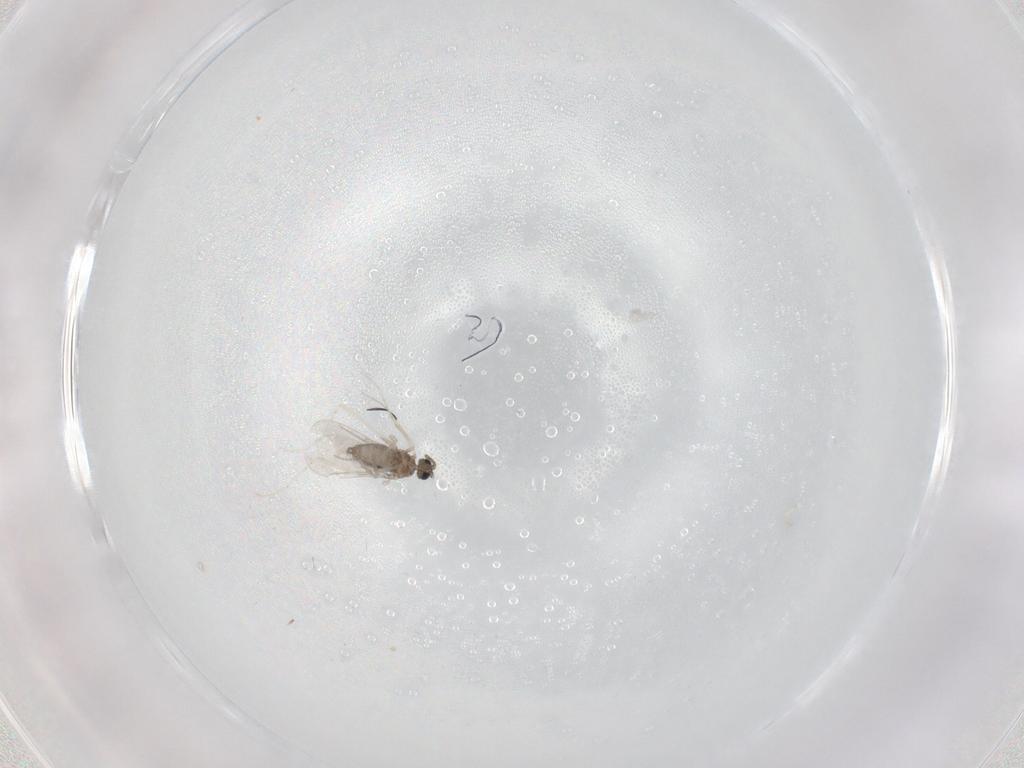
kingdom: Animalia
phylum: Arthropoda
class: Insecta
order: Diptera
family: Cecidomyiidae
